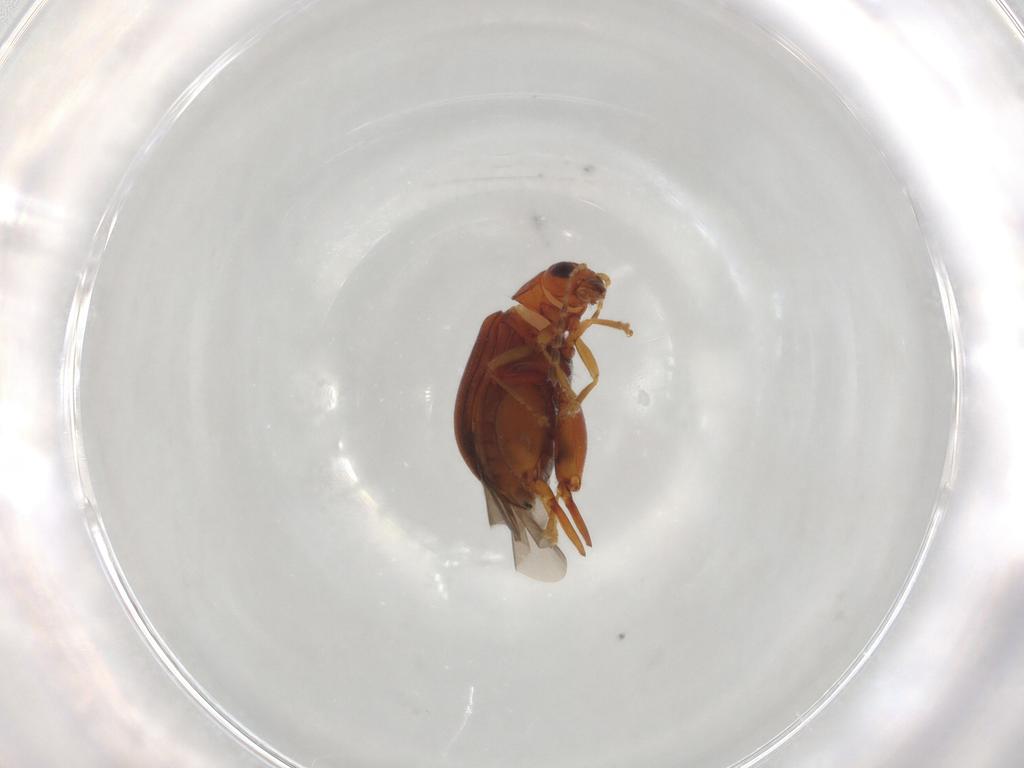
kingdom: Animalia
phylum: Arthropoda
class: Insecta
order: Coleoptera
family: Chrysomelidae
